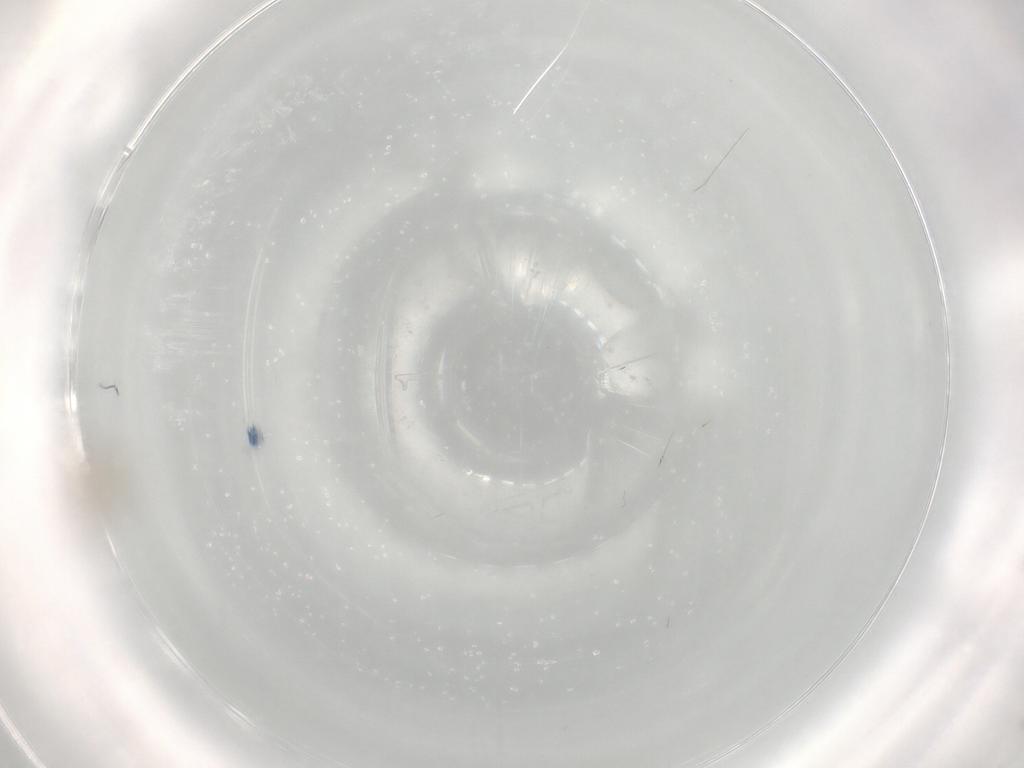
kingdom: Animalia
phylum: Arthropoda
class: Insecta
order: Diptera
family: Cecidomyiidae
